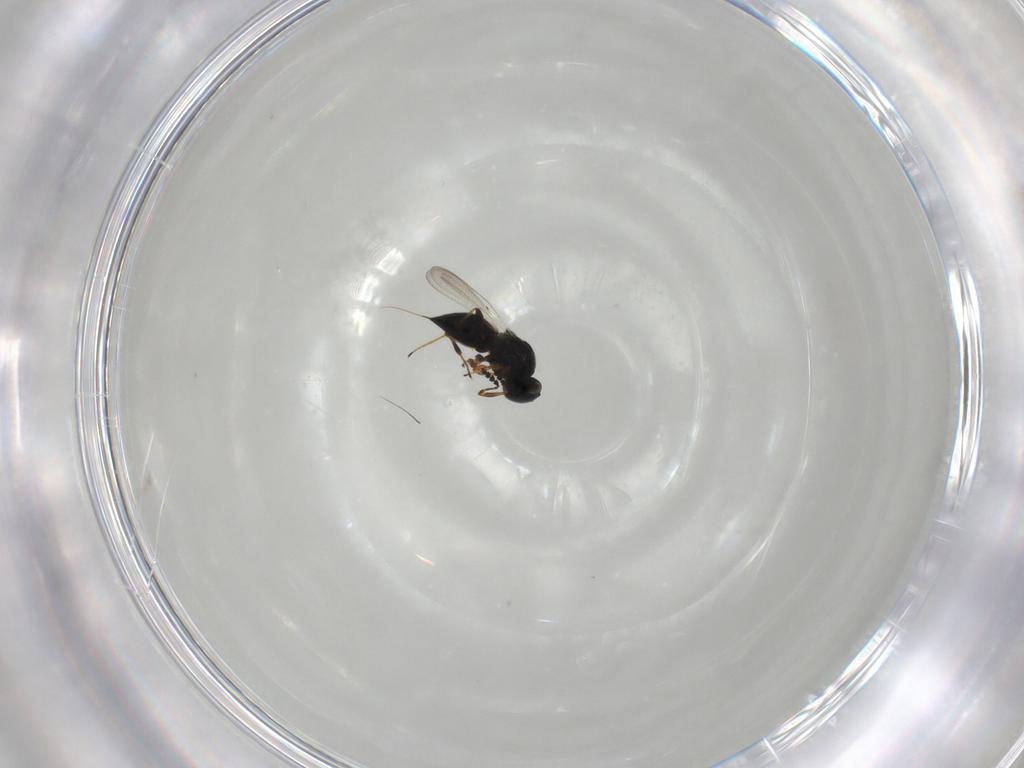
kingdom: Animalia
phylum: Arthropoda
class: Insecta
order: Hymenoptera
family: Platygastridae
